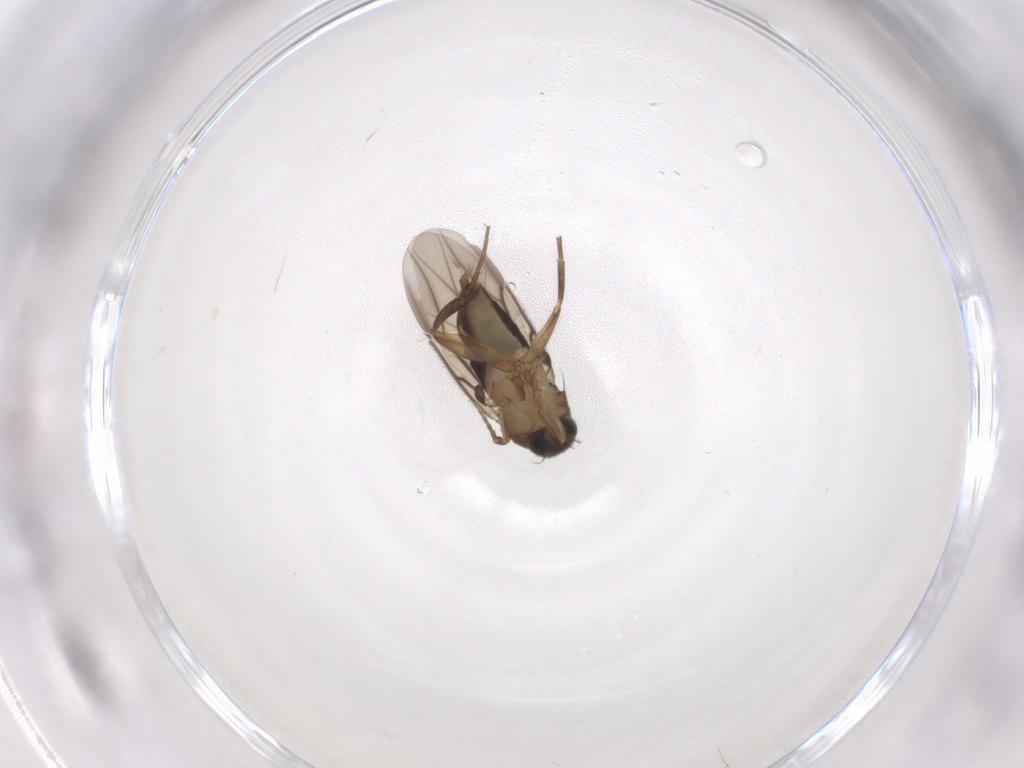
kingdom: Animalia
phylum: Arthropoda
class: Insecta
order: Diptera
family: Phoridae
